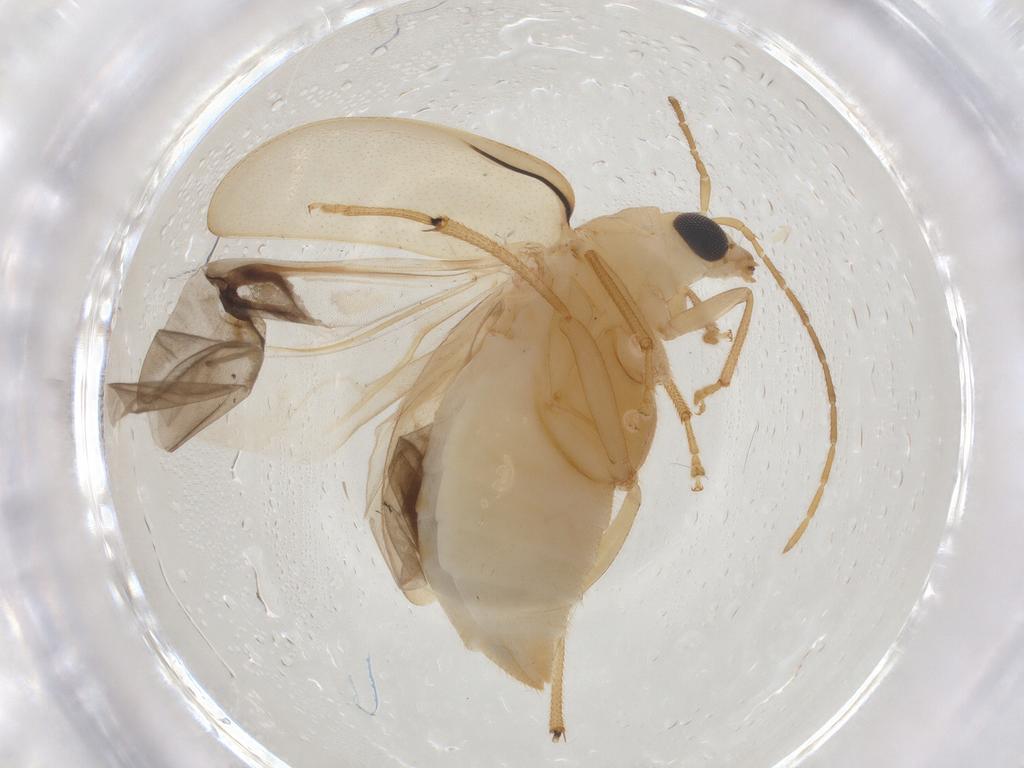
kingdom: Animalia
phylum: Arthropoda
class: Insecta
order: Coleoptera
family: Chrysomelidae
